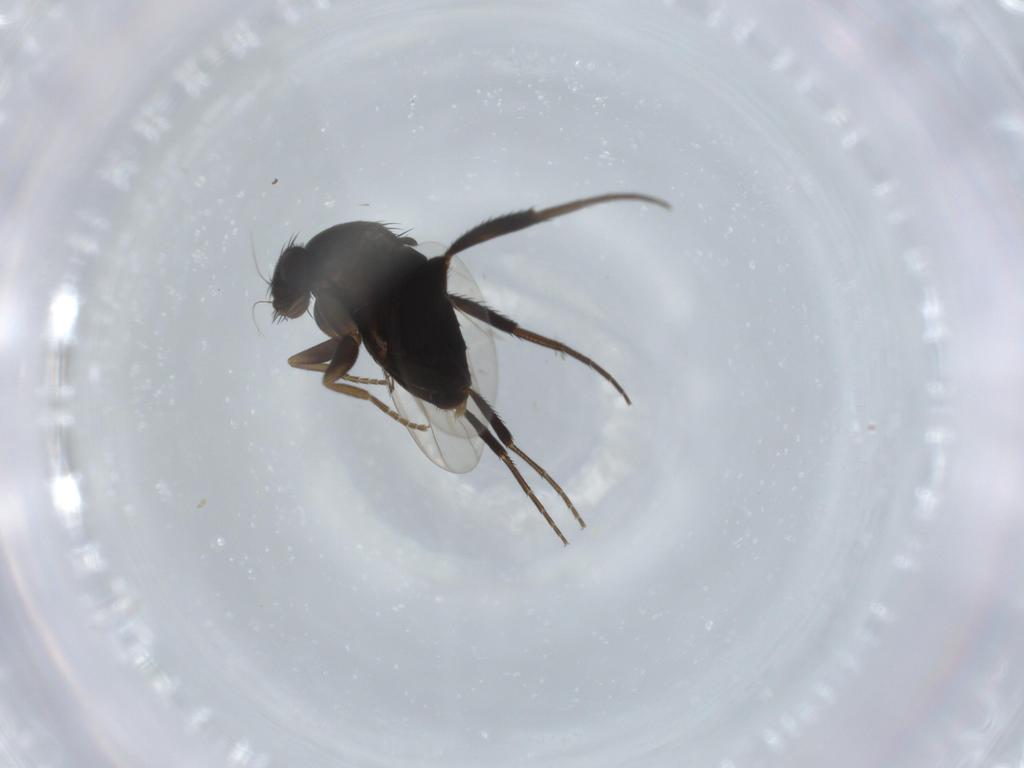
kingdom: Animalia
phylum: Arthropoda
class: Insecta
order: Diptera
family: Phoridae
